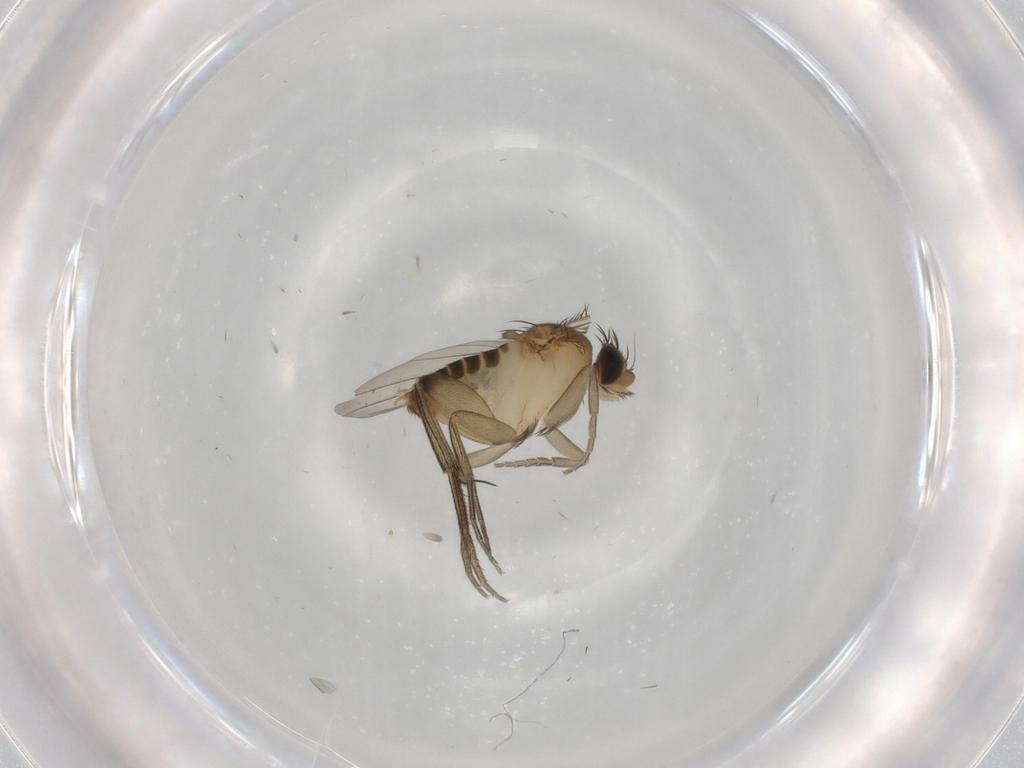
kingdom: Animalia
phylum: Arthropoda
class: Insecta
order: Diptera
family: Phoridae
